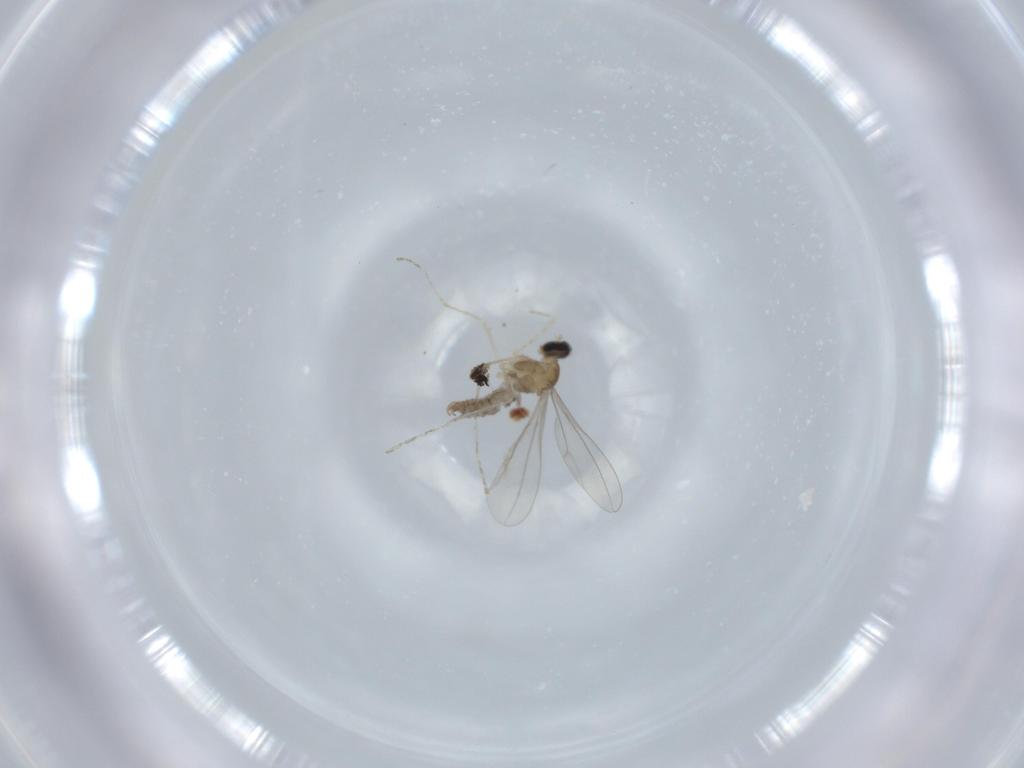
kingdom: Animalia
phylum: Arthropoda
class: Insecta
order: Diptera
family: Cecidomyiidae
